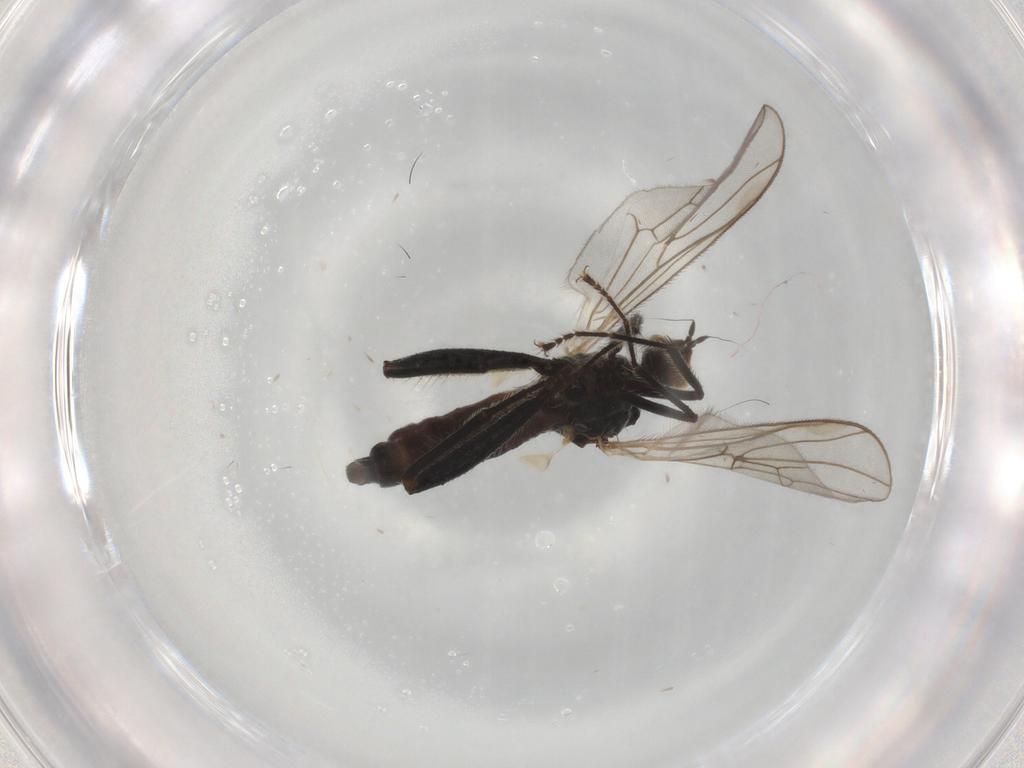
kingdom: Animalia
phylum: Arthropoda
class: Insecta
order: Diptera
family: Hybotidae
